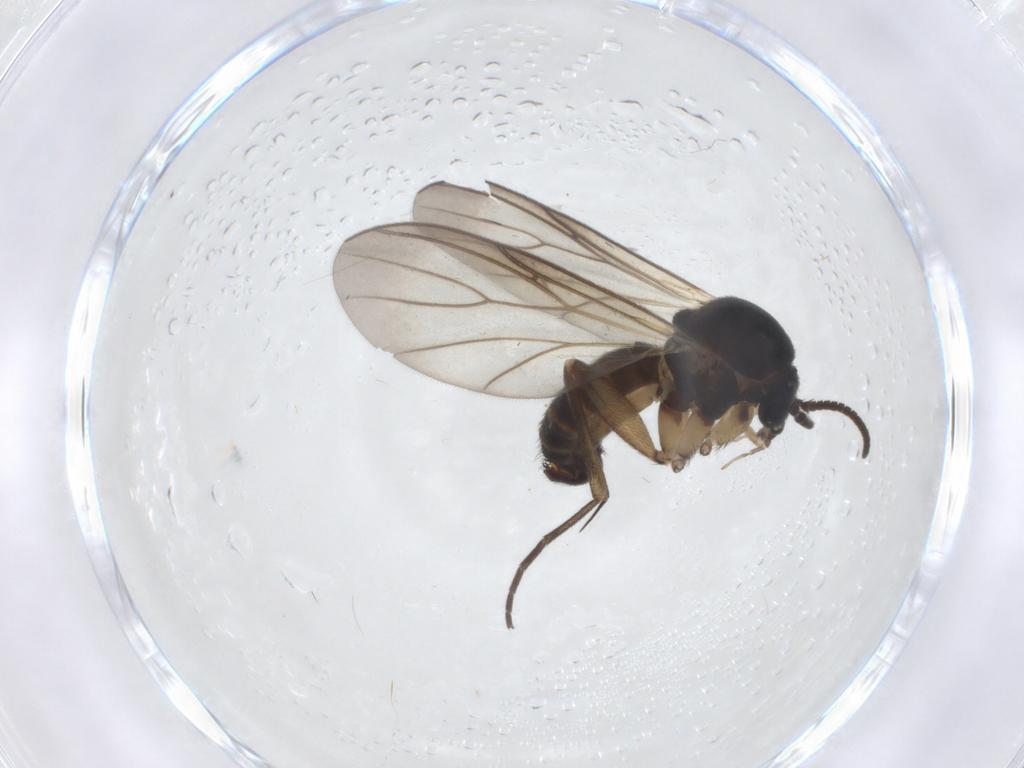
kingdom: Animalia
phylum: Arthropoda
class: Insecta
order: Diptera
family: Mycetophilidae
